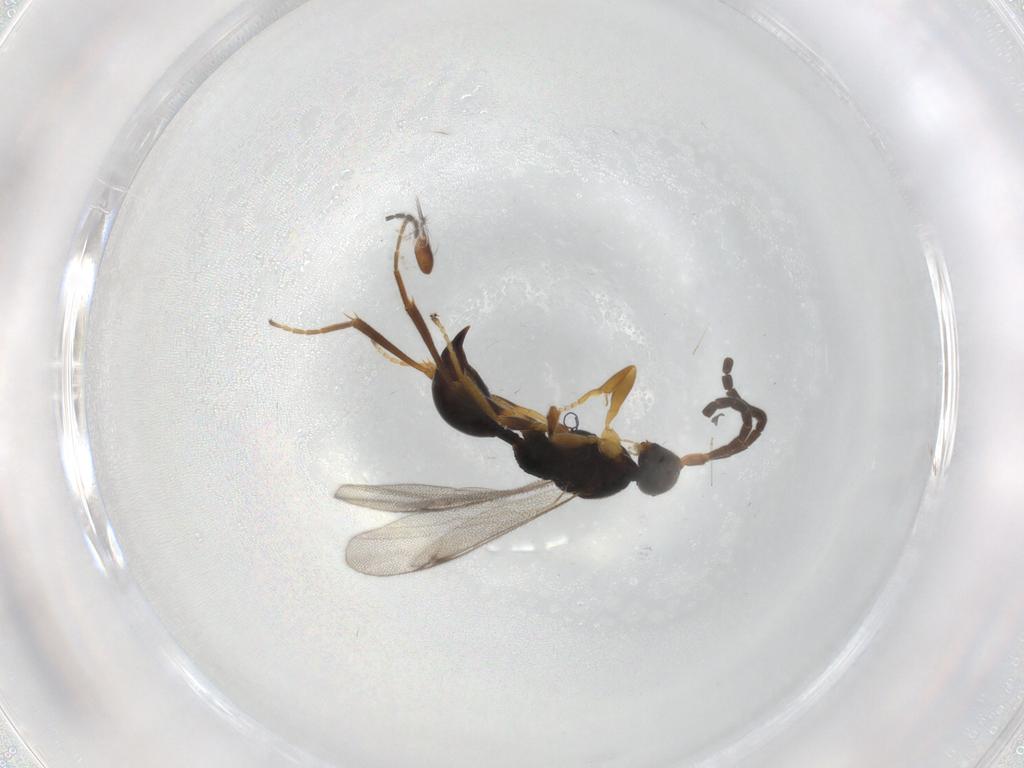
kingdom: Animalia
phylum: Arthropoda
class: Insecta
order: Hymenoptera
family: Proctotrupidae
